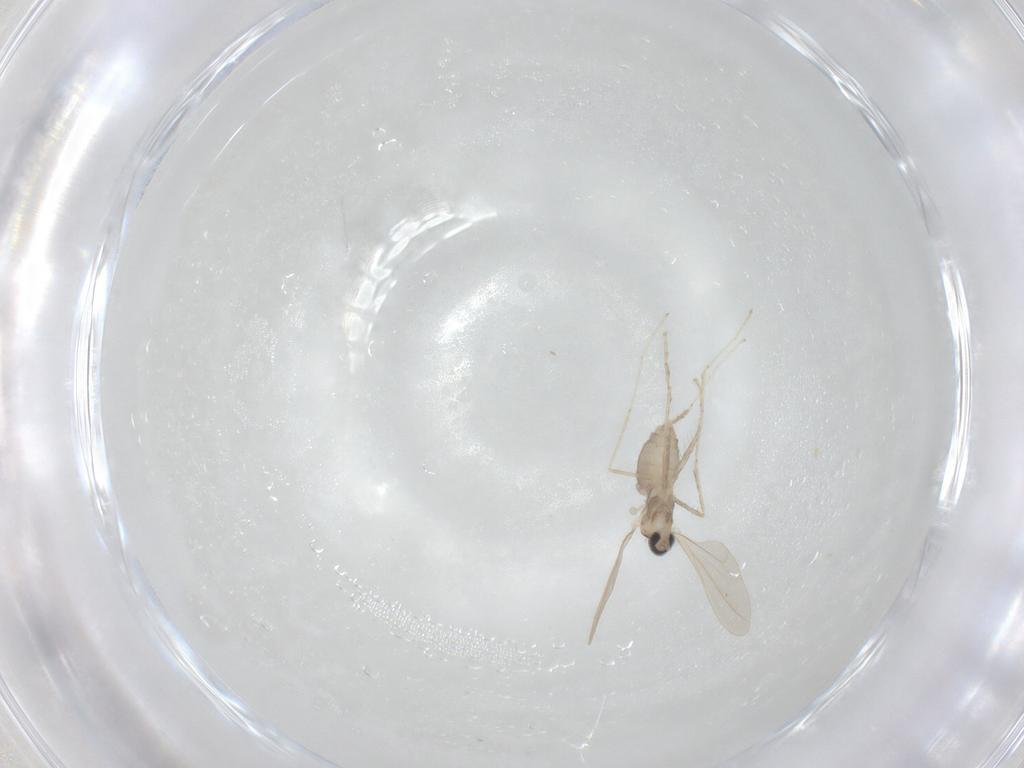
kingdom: Animalia
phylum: Arthropoda
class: Insecta
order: Diptera
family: Cecidomyiidae
